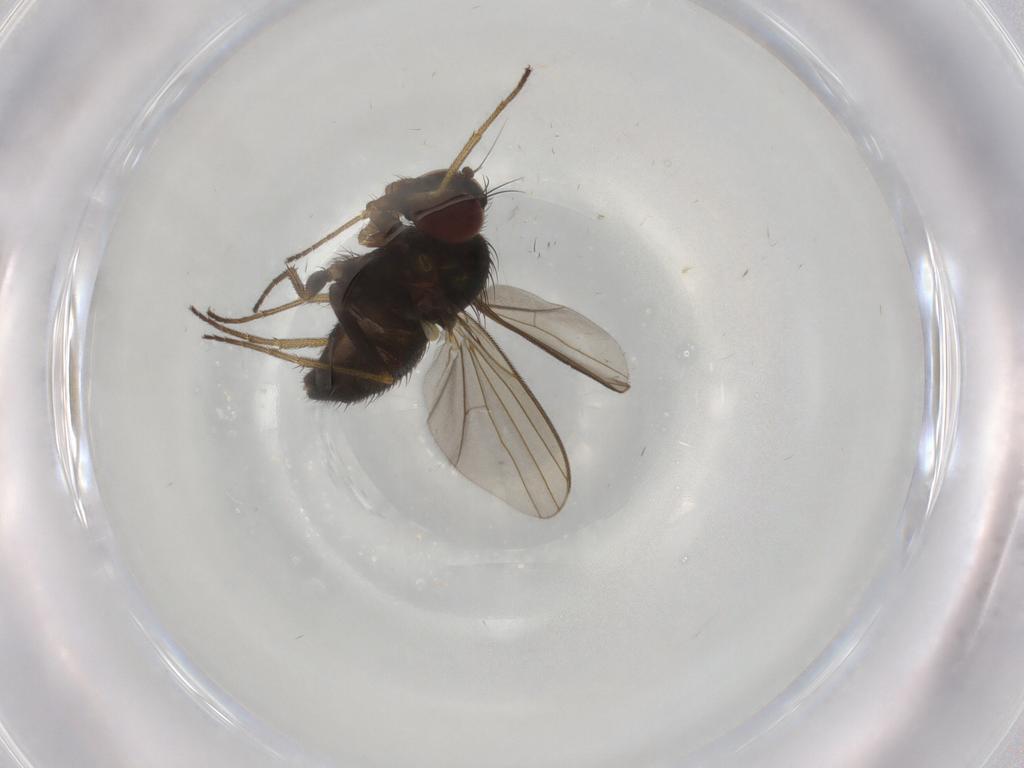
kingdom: Animalia
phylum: Arthropoda
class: Insecta
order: Diptera
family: Dolichopodidae
